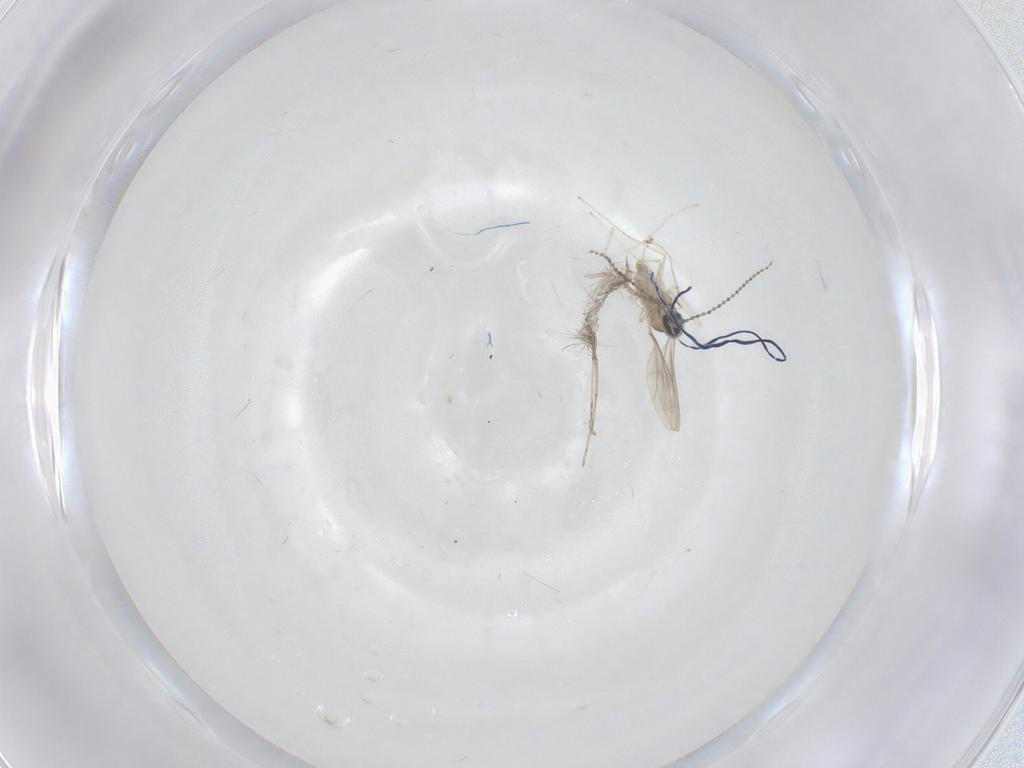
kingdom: Animalia
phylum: Arthropoda
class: Insecta
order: Diptera
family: Cecidomyiidae
